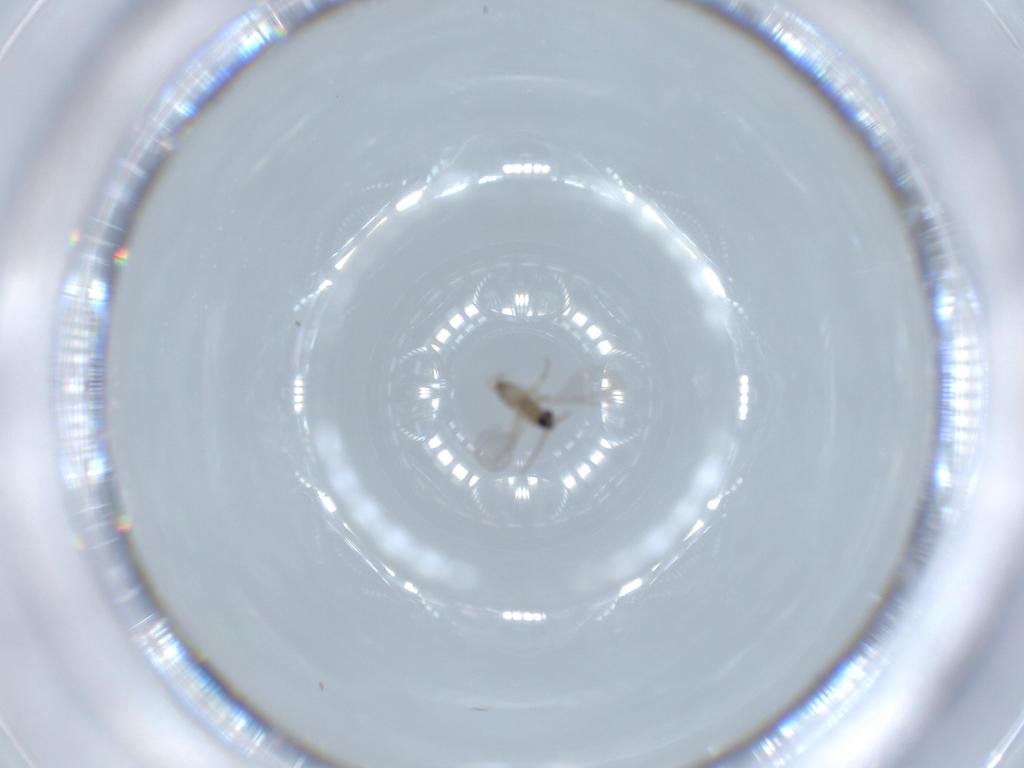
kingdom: Animalia
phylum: Arthropoda
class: Insecta
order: Diptera
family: Cecidomyiidae
